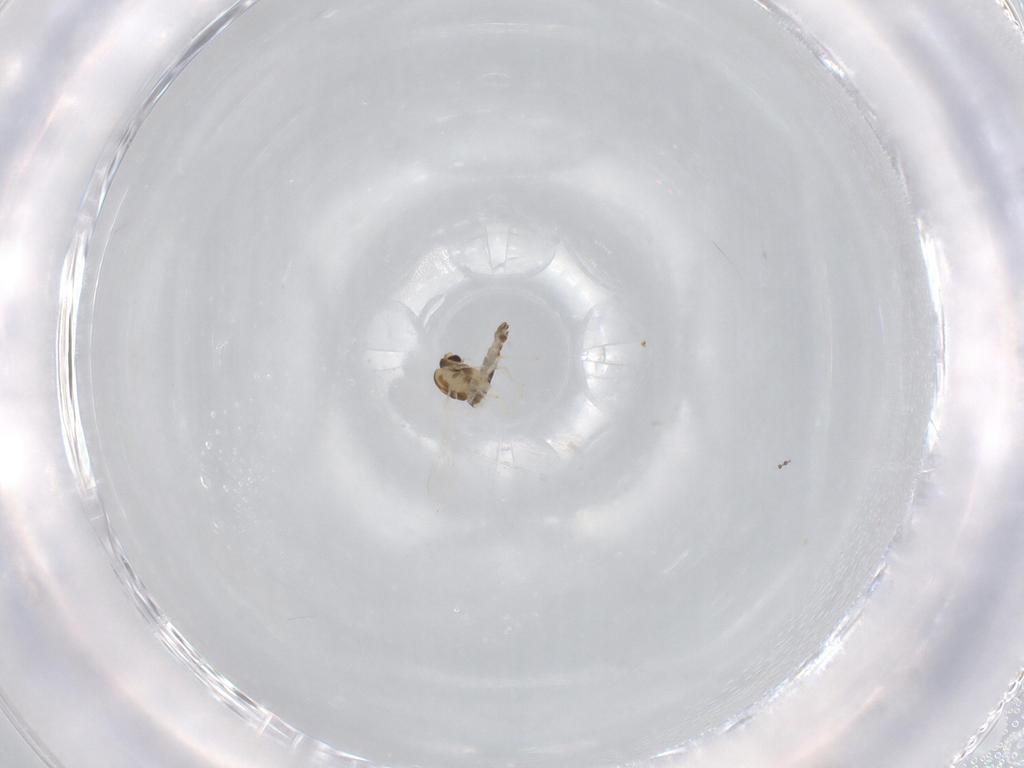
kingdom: Animalia
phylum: Arthropoda
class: Insecta
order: Diptera
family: Chironomidae
